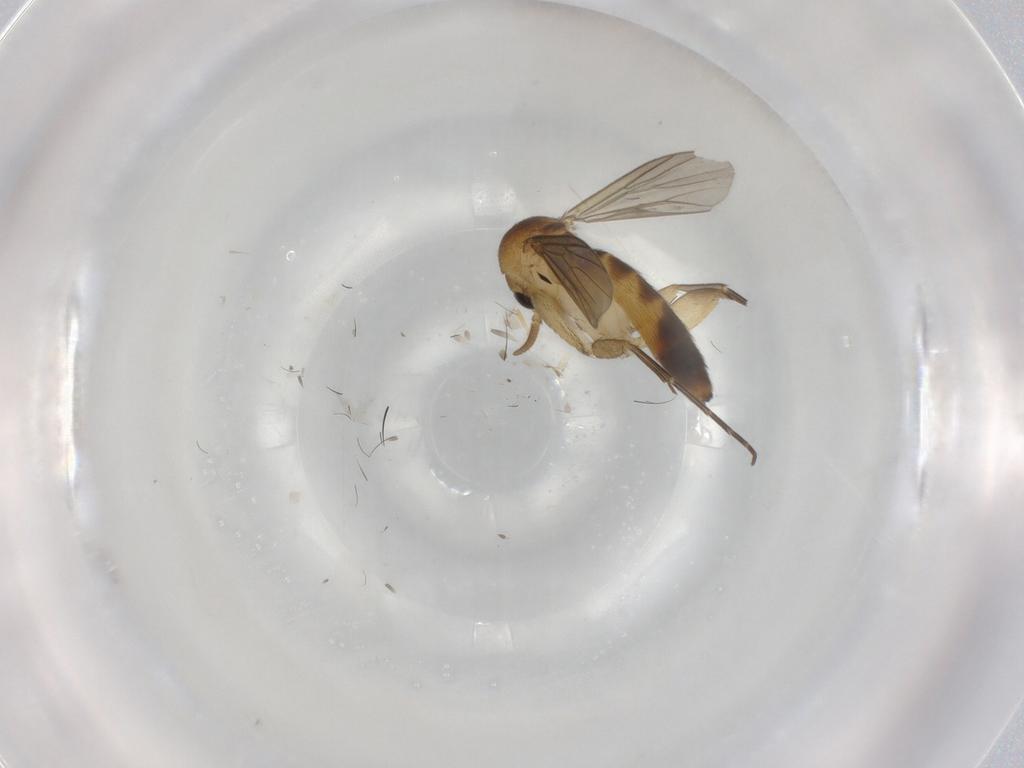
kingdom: Animalia
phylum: Arthropoda
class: Insecta
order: Diptera
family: Mycetophilidae
